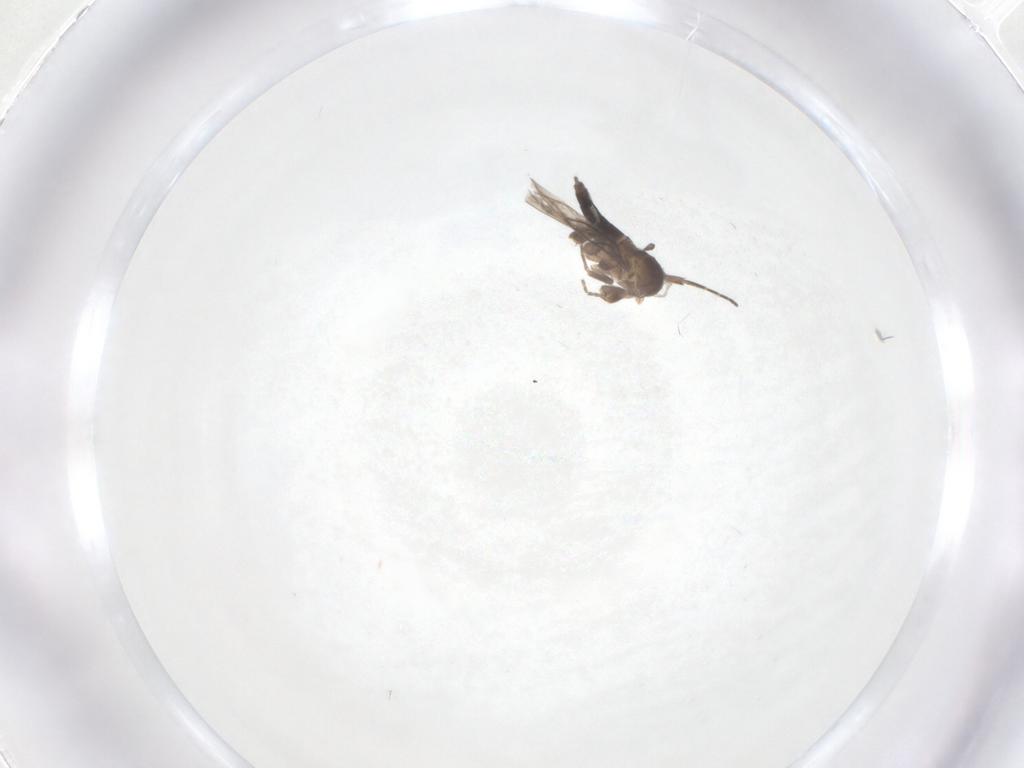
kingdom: Animalia
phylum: Arthropoda
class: Insecta
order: Diptera
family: Cecidomyiidae
